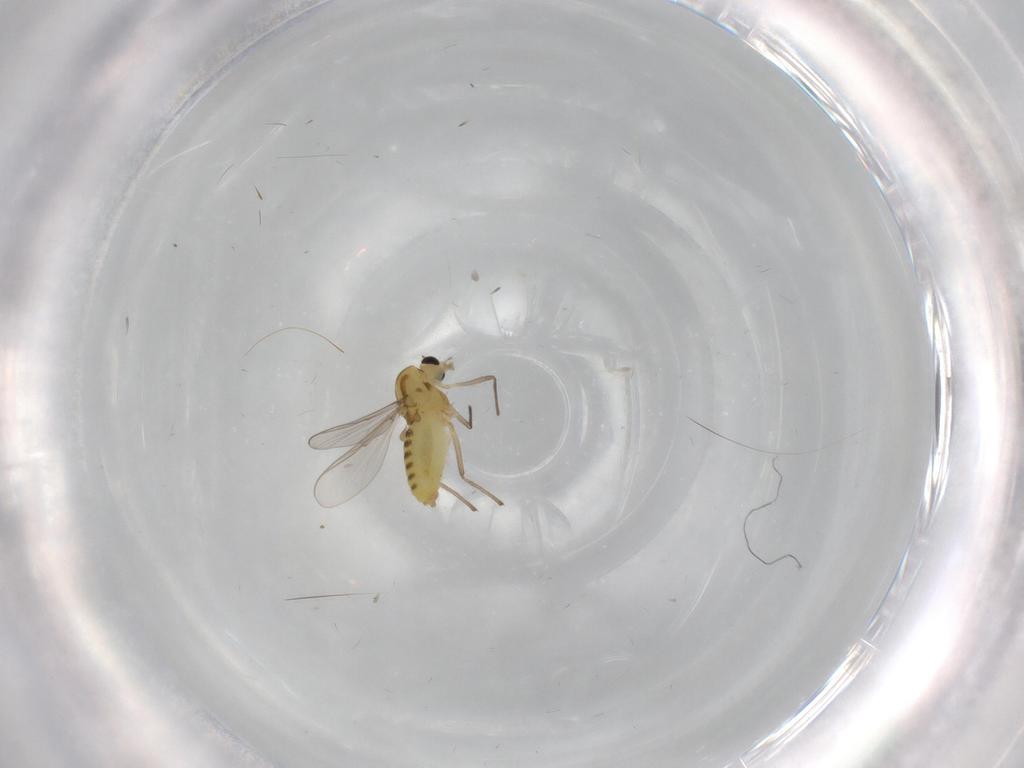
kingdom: Animalia
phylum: Arthropoda
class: Insecta
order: Diptera
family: Chironomidae
